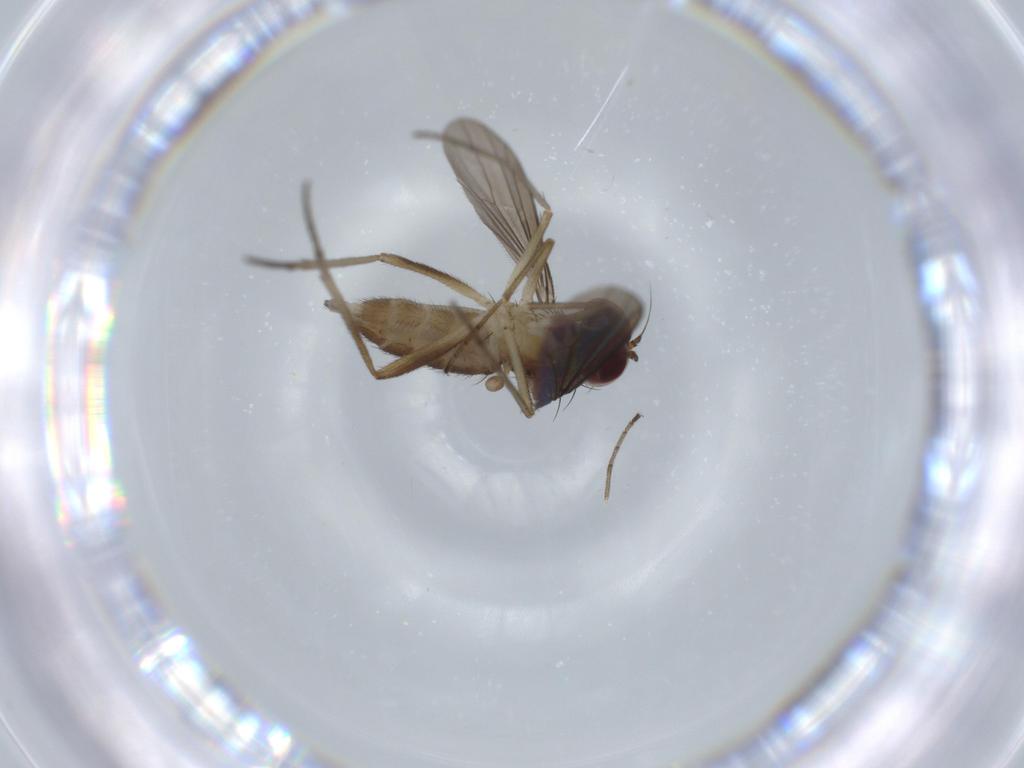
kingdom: Animalia
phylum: Arthropoda
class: Insecta
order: Diptera
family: Dolichopodidae
